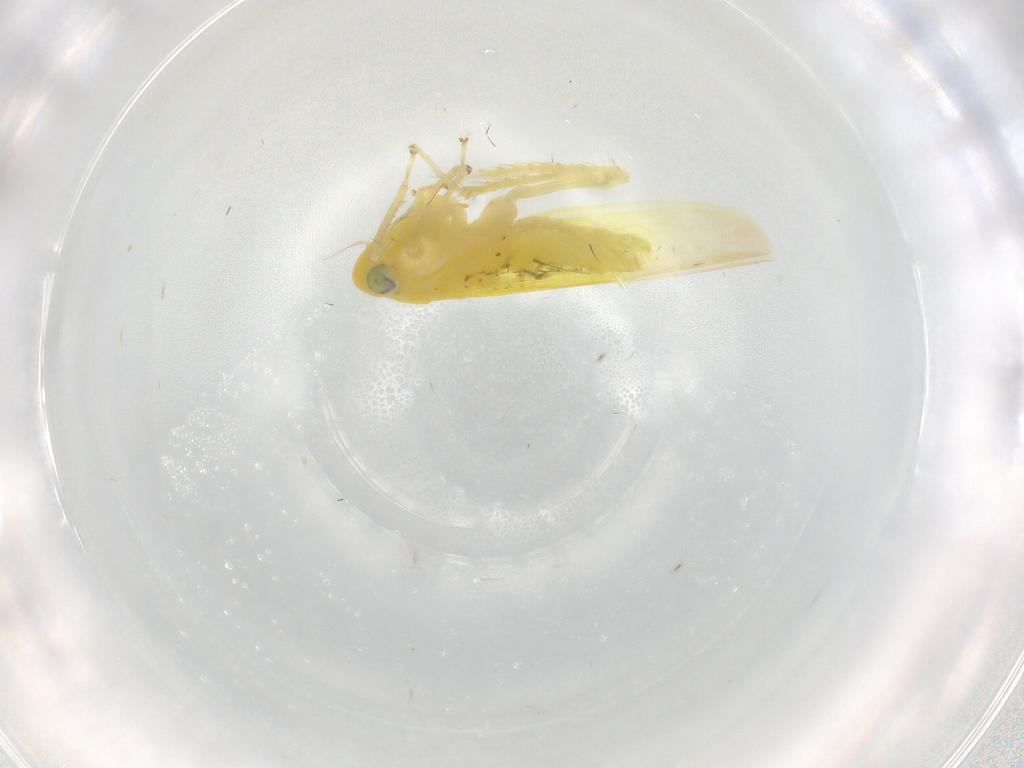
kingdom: Animalia
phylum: Arthropoda
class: Insecta
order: Hemiptera
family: Cicadellidae
